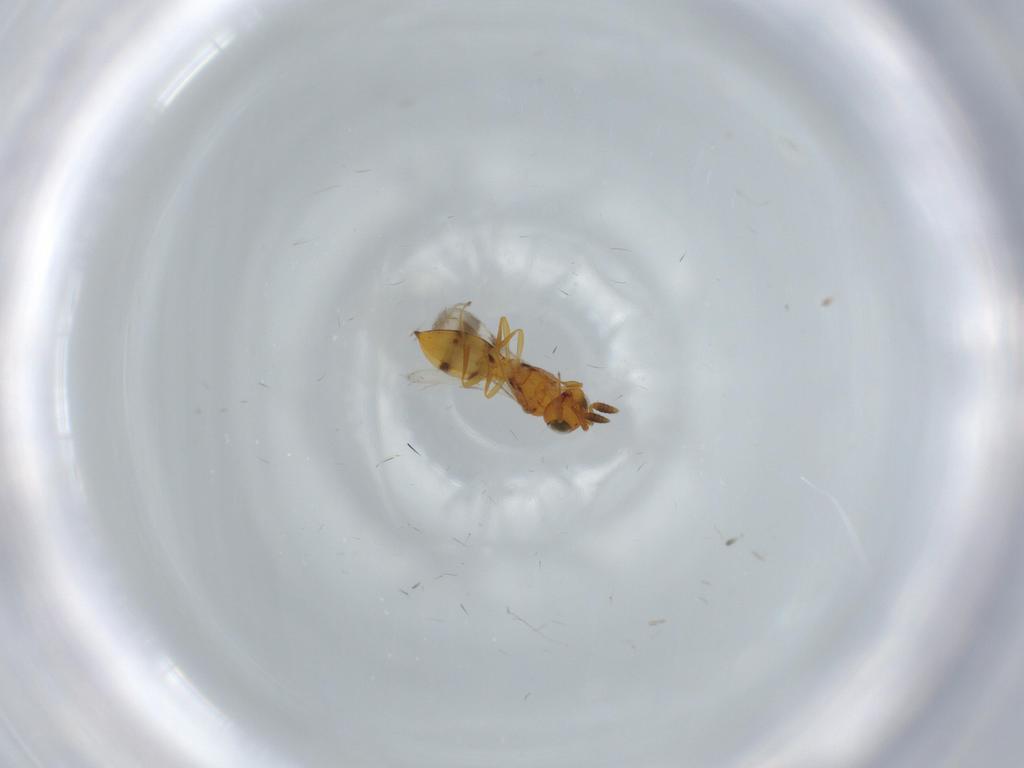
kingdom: Animalia
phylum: Arthropoda
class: Insecta
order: Hymenoptera
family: Scelionidae
